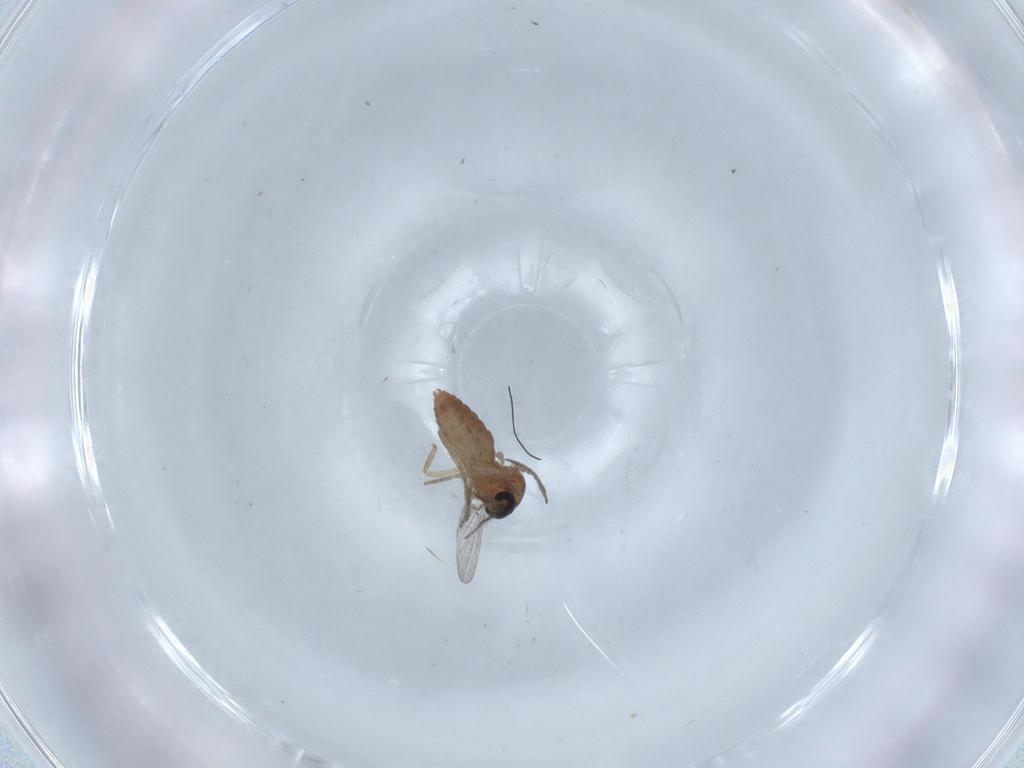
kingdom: Animalia
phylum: Arthropoda
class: Insecta
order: Diptera
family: Ceratopogonidae
